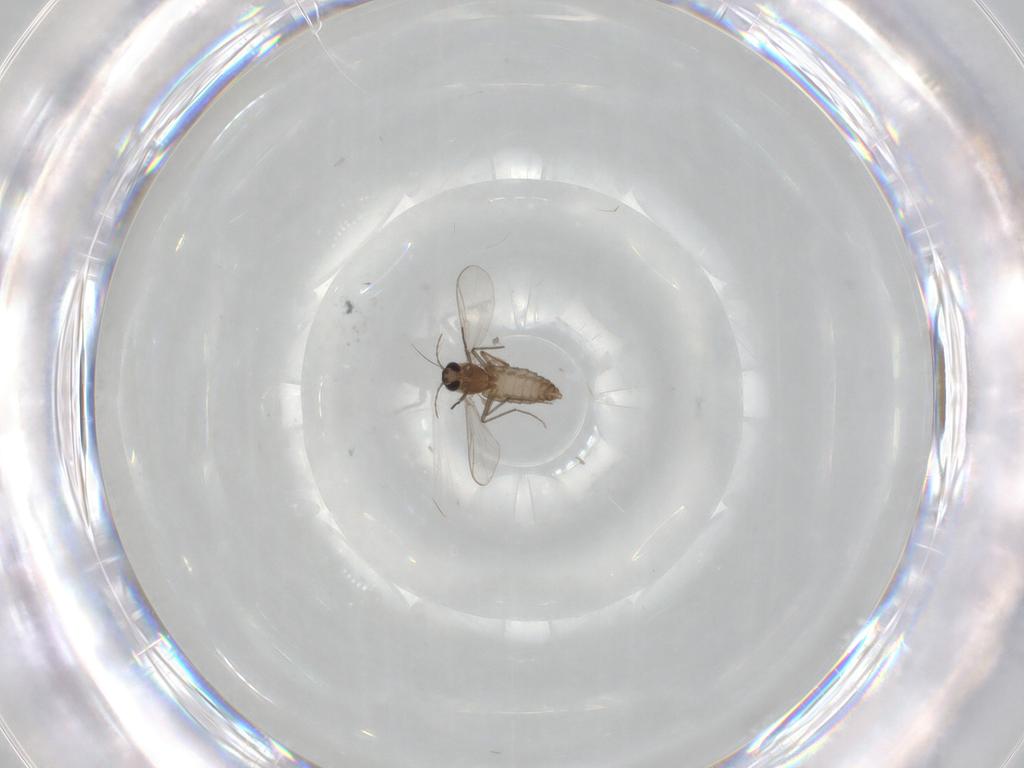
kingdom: Animalia
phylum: Arthropoda
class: Insecta
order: Diptera
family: Chironomidae
